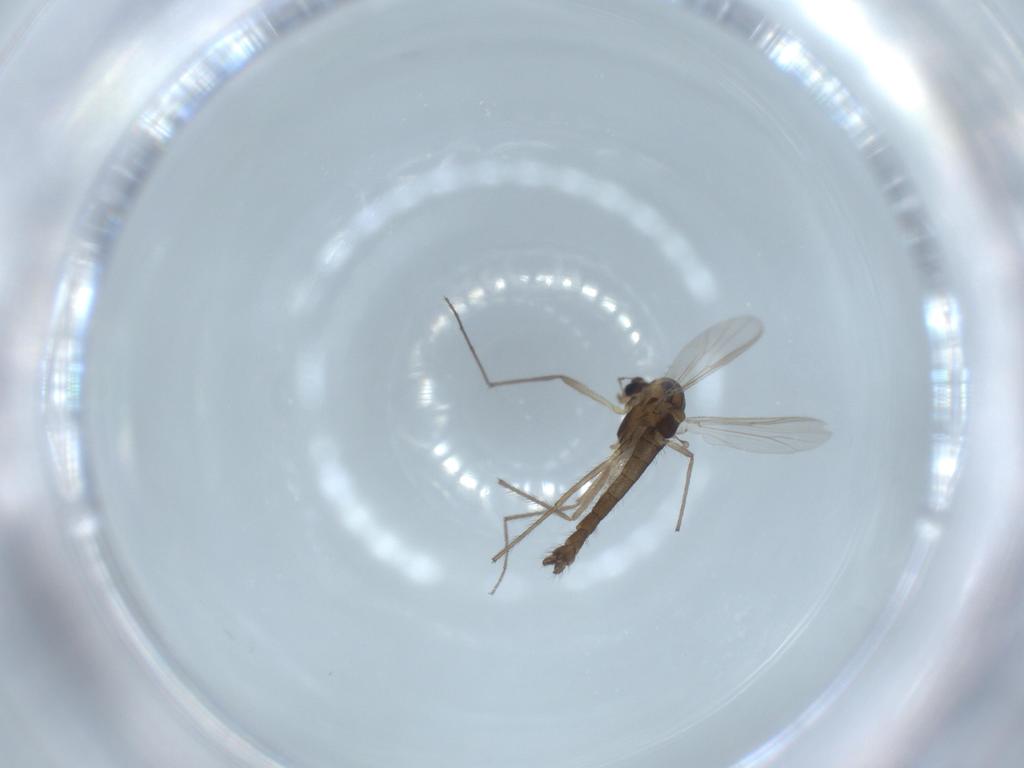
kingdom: Animalia
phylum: Arthropoda
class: Insecta
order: Diptera
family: Chironomidae
